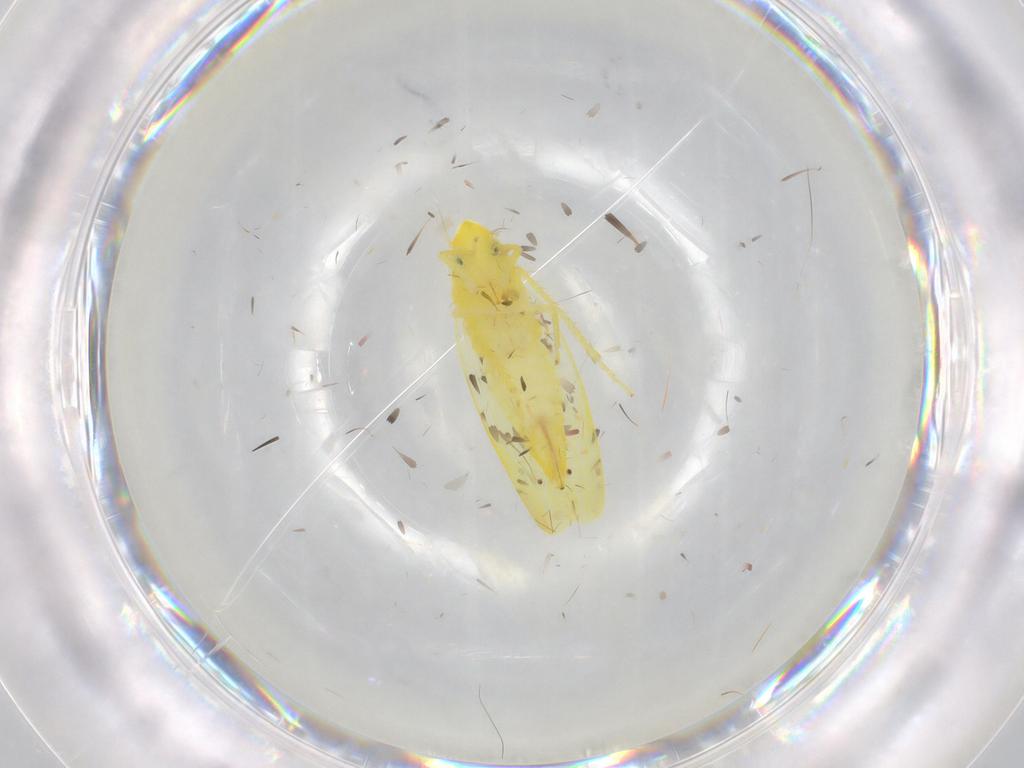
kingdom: Animalia
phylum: Arthropoda
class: Insecta
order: Hemiptera
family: Cicadellidae
